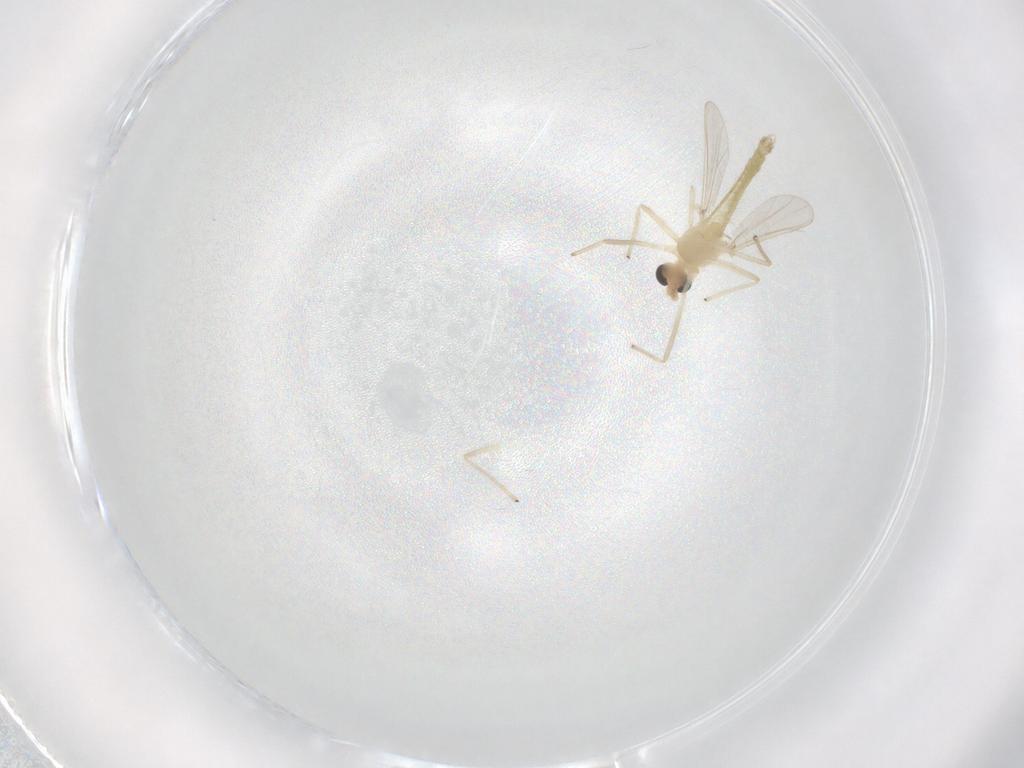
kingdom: Animalia
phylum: Arthropoda
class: Insecta
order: Diptera
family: Chironomidae
